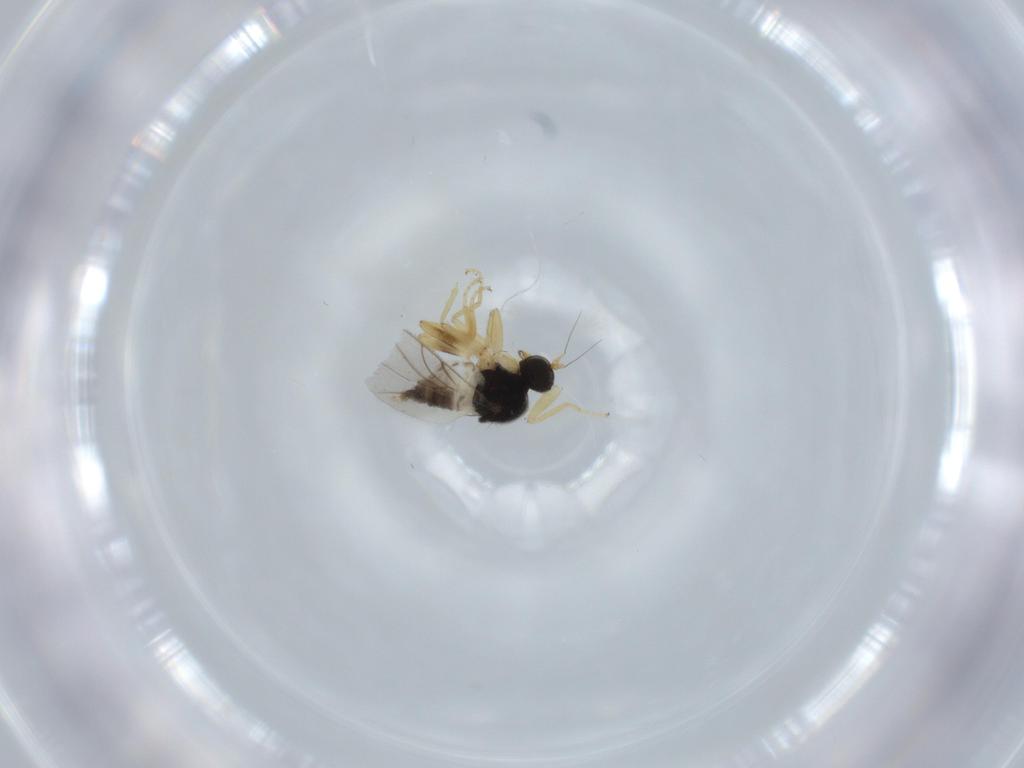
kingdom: Animalia
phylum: Arthropoda
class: Insecta
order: Diptera
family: Hybotidae
